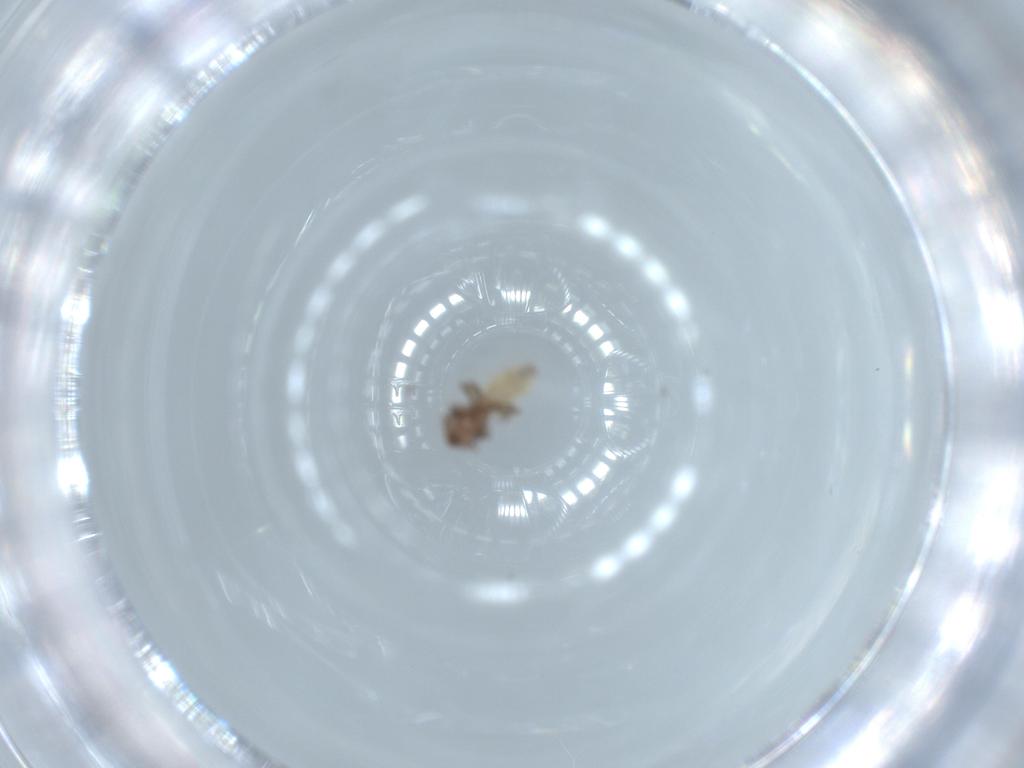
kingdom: Animalia
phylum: Arthropoda
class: Insecta
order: Psocodea
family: Lepidopsocidae
